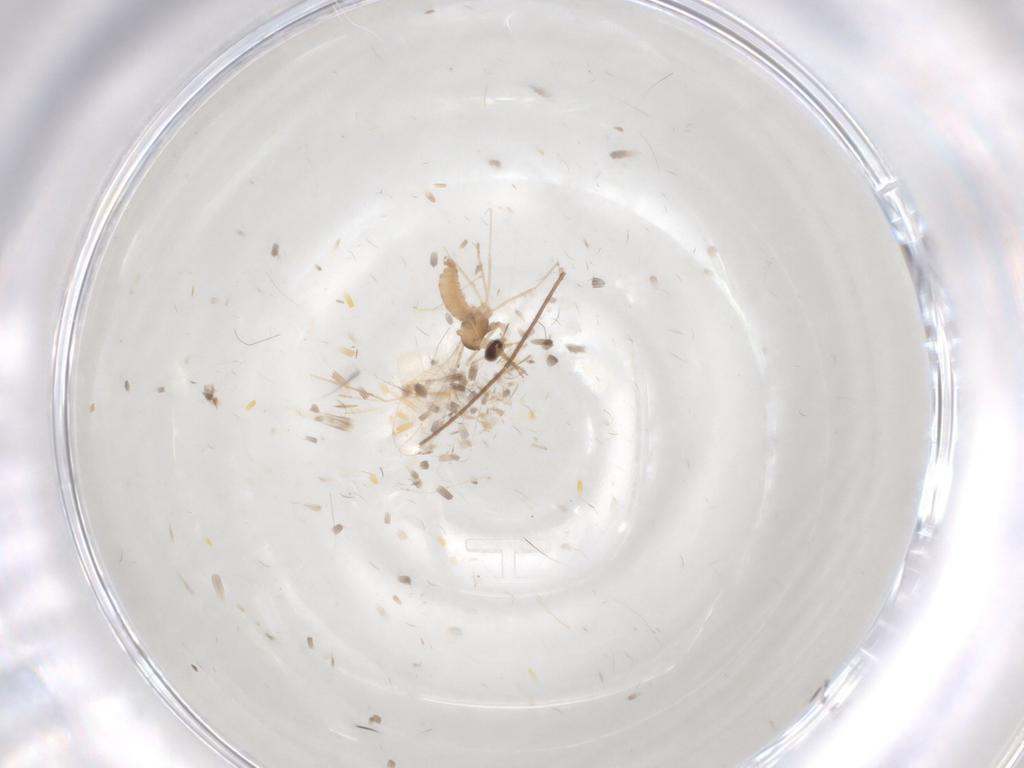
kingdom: Animalia
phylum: Arthropoda
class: Insecta
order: Diptera
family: Cecidomyiidae
